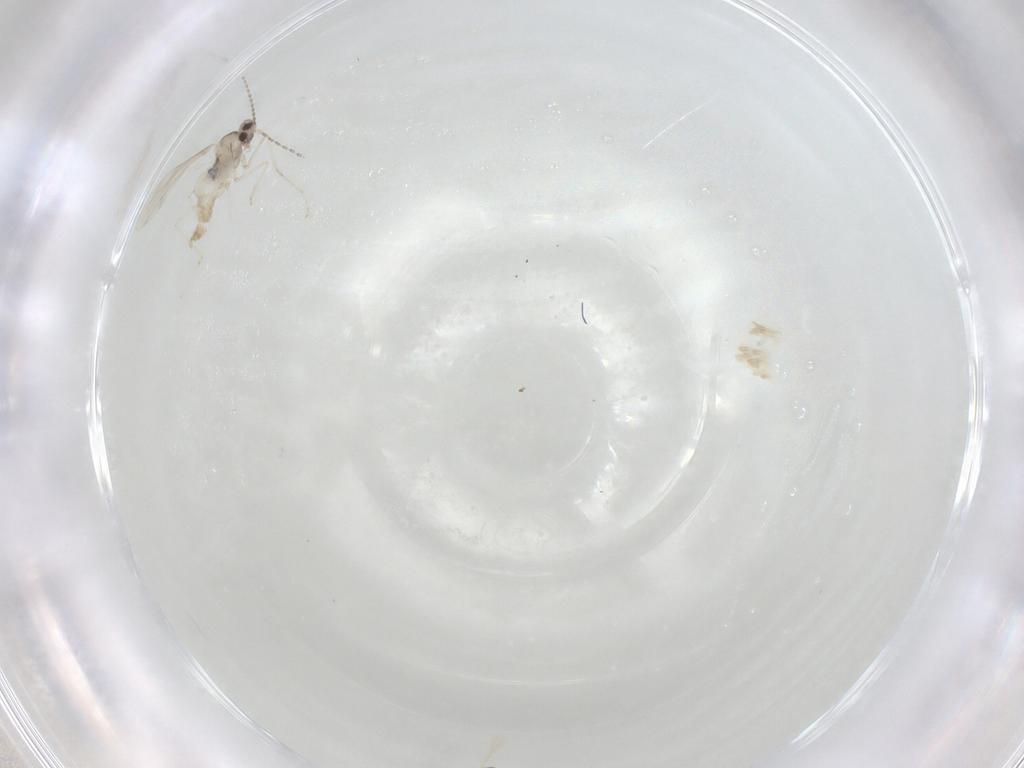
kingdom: Animalia
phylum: Arthropoda
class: Insecta
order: Diptera
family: Cecidomyiidae
